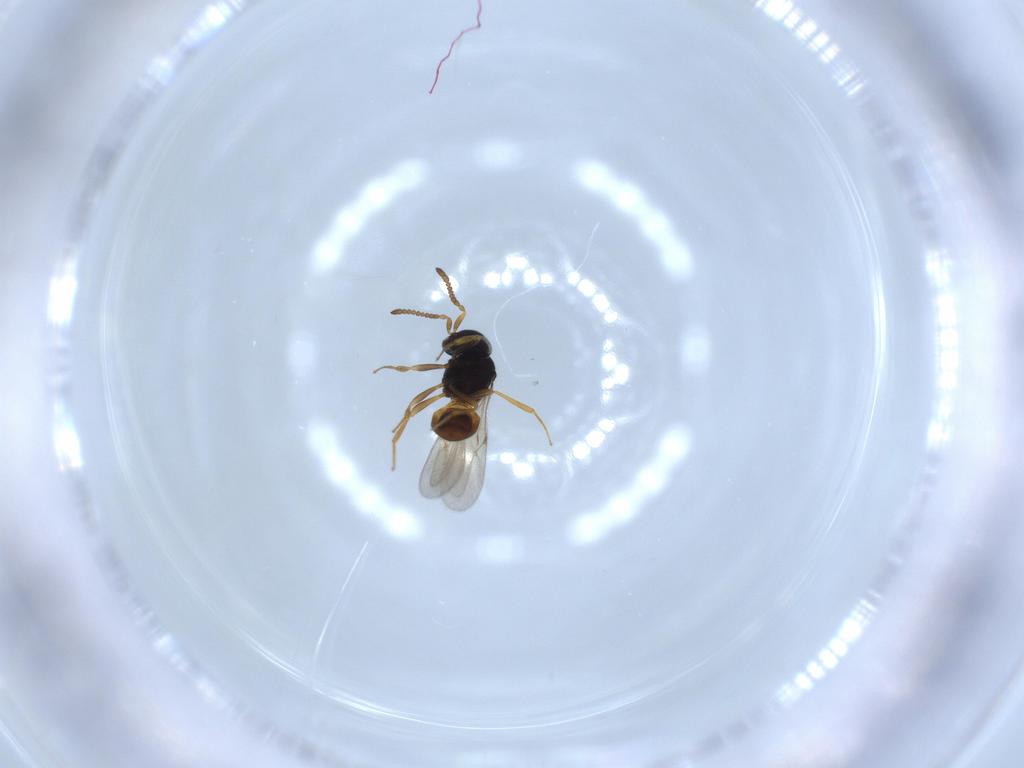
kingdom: Animalia
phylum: Arthropoda
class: Insecta
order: Hymenoptera
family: Scelionidae
